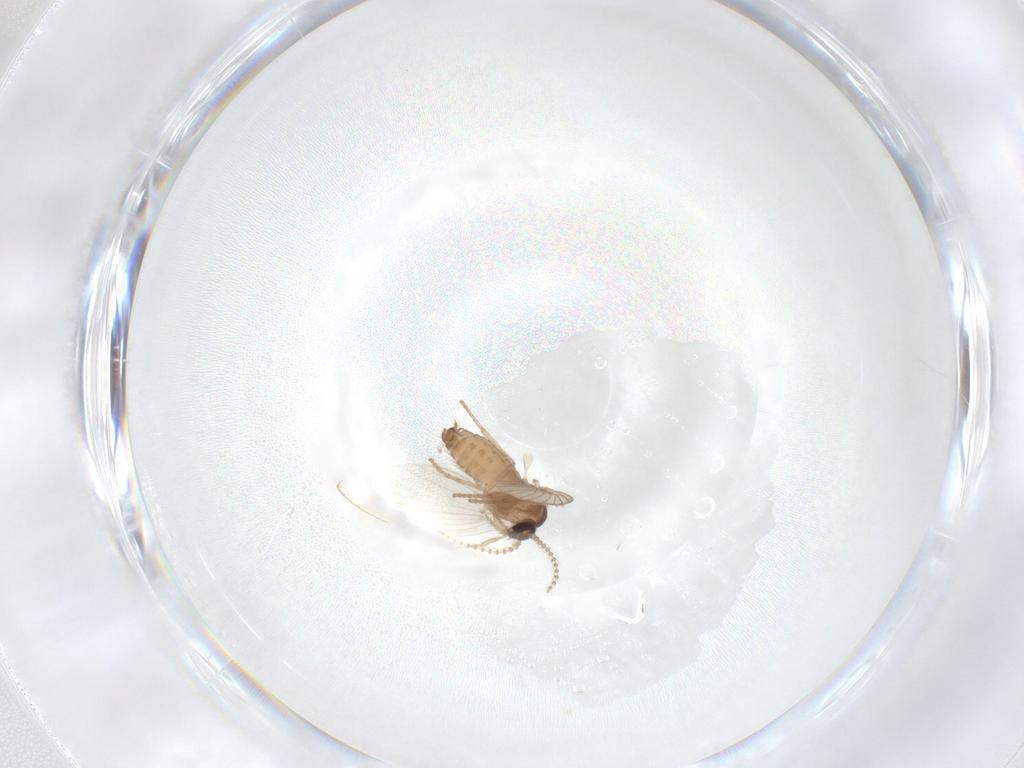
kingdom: Animalia
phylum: Arthropoda
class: Insecta
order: Diptera
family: Psychodidae
